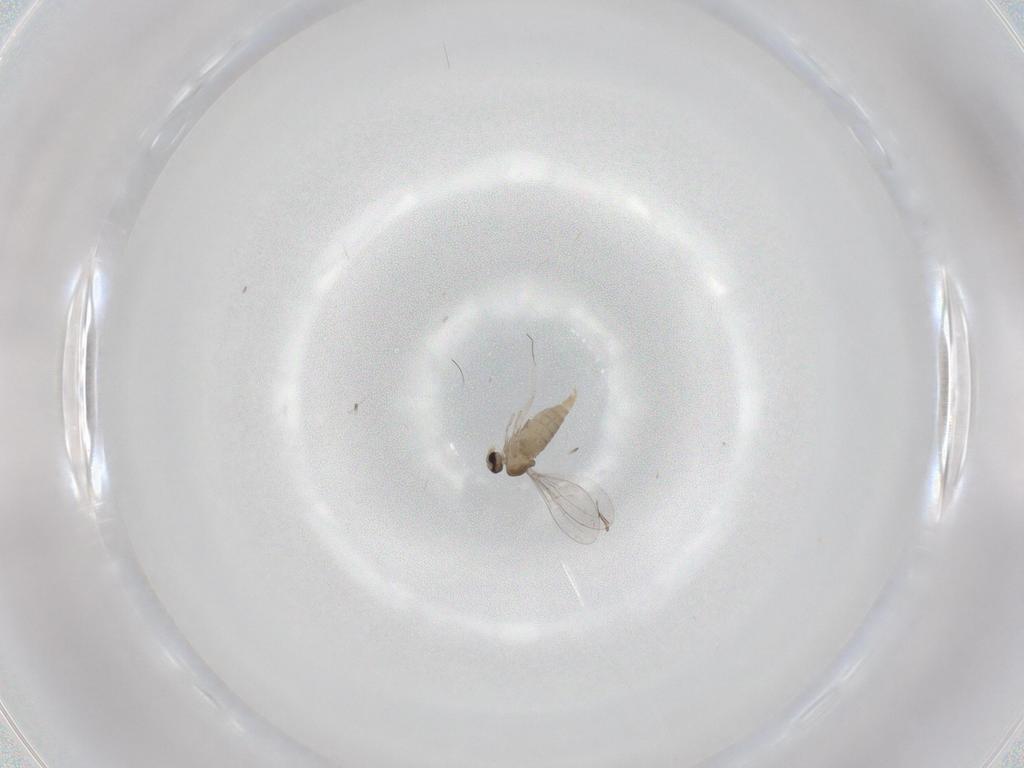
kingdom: Animalia
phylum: Arthropoda
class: Insecta
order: Diptera
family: Cecidomyiidae
